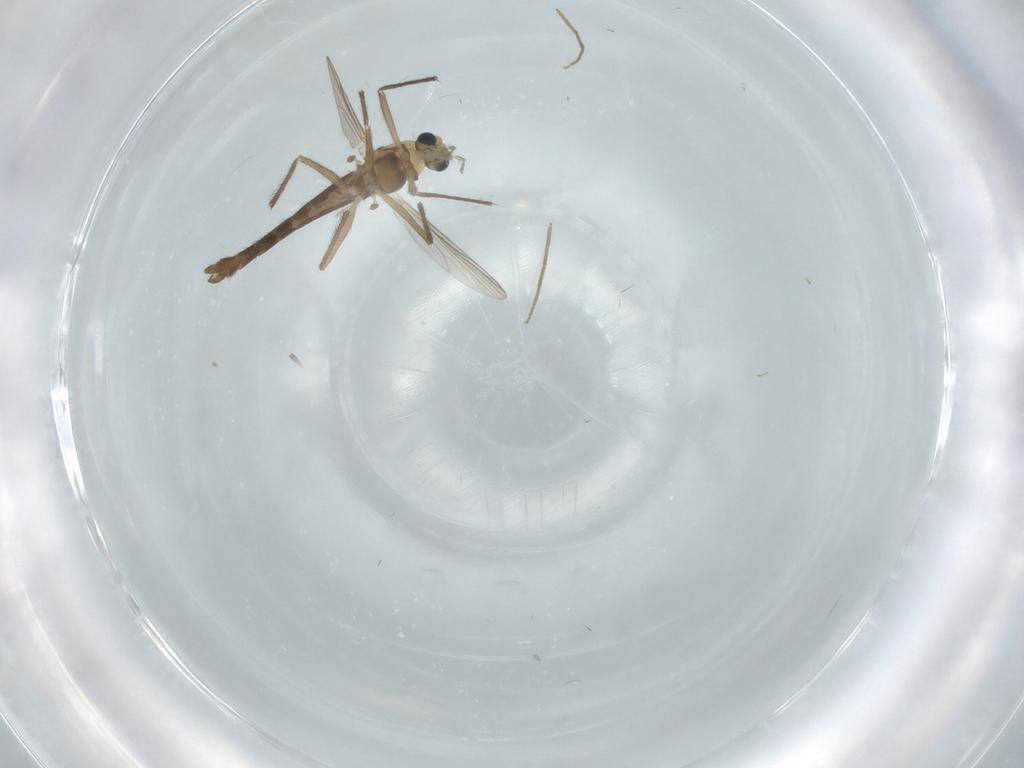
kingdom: Animalia
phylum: Arthropoda
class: Insecta
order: Diptera
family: Chironomidae
